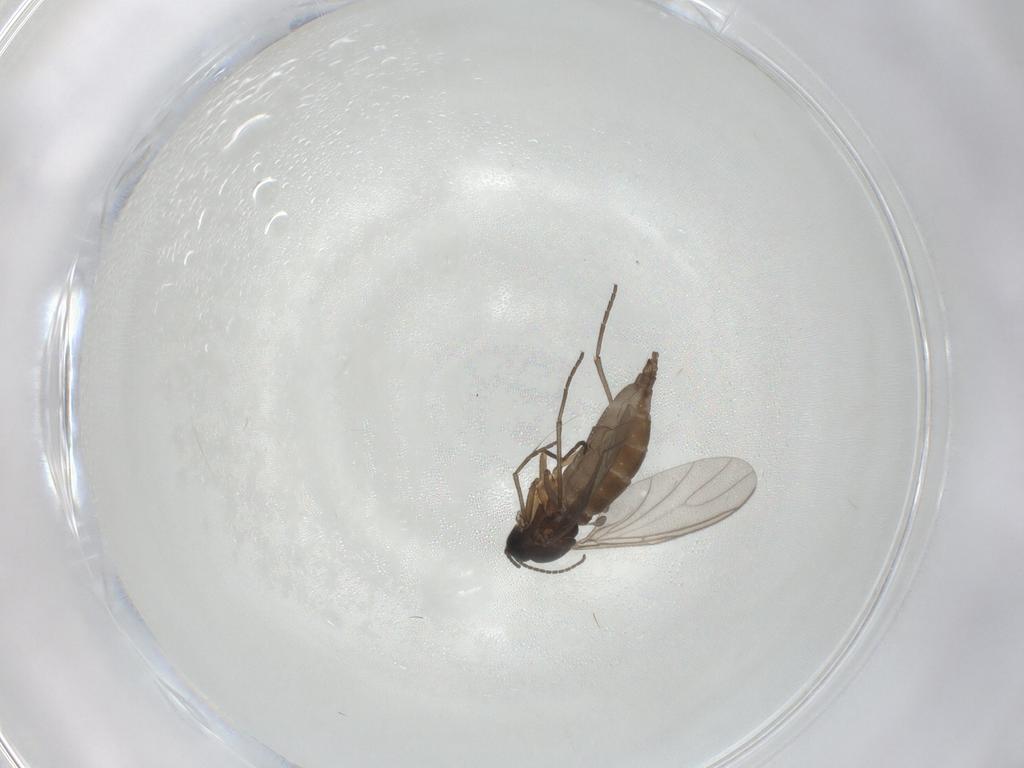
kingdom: Animalia
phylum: Arthropoda
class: Insecta
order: Diptera
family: Sciaridae
